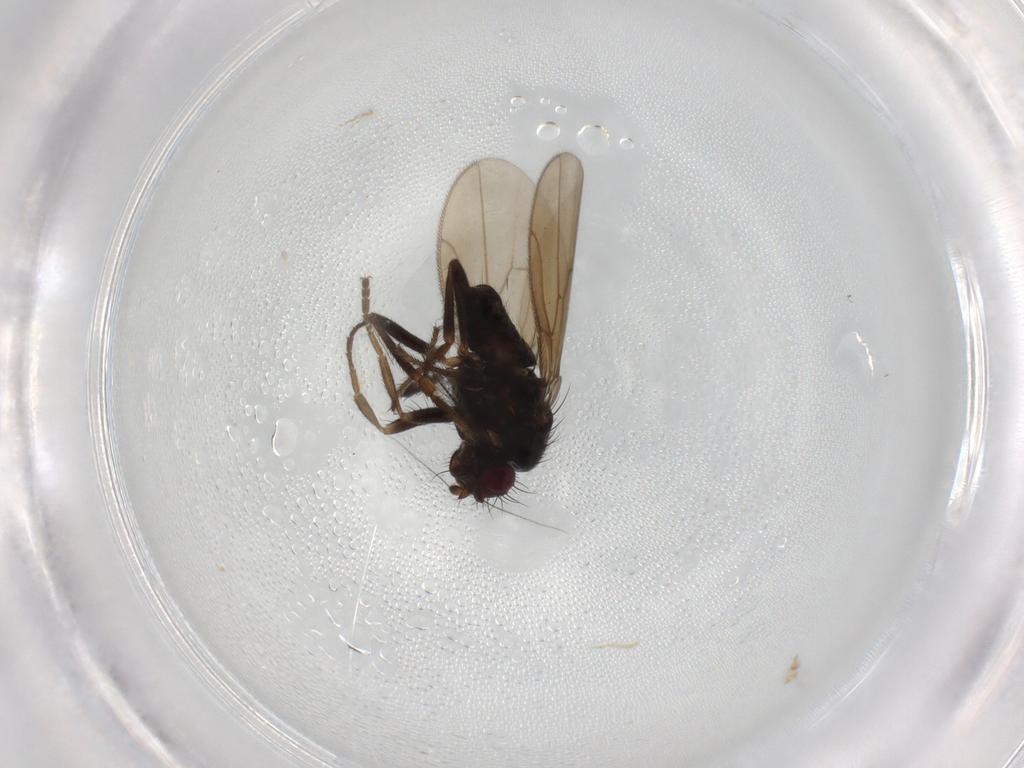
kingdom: Animalia
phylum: Arthropoda
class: Insecta
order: Diptera
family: Sphaeroceridae
